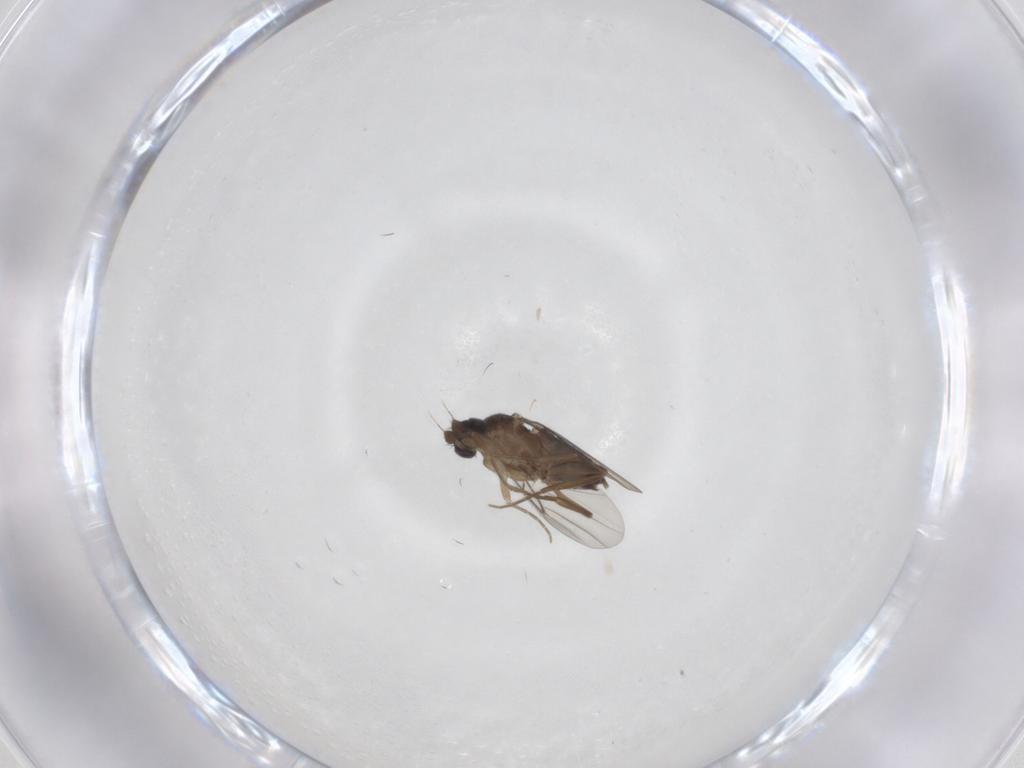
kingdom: Animalia
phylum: Arthropoda
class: Insecta
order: Diptera
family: Phoridae
